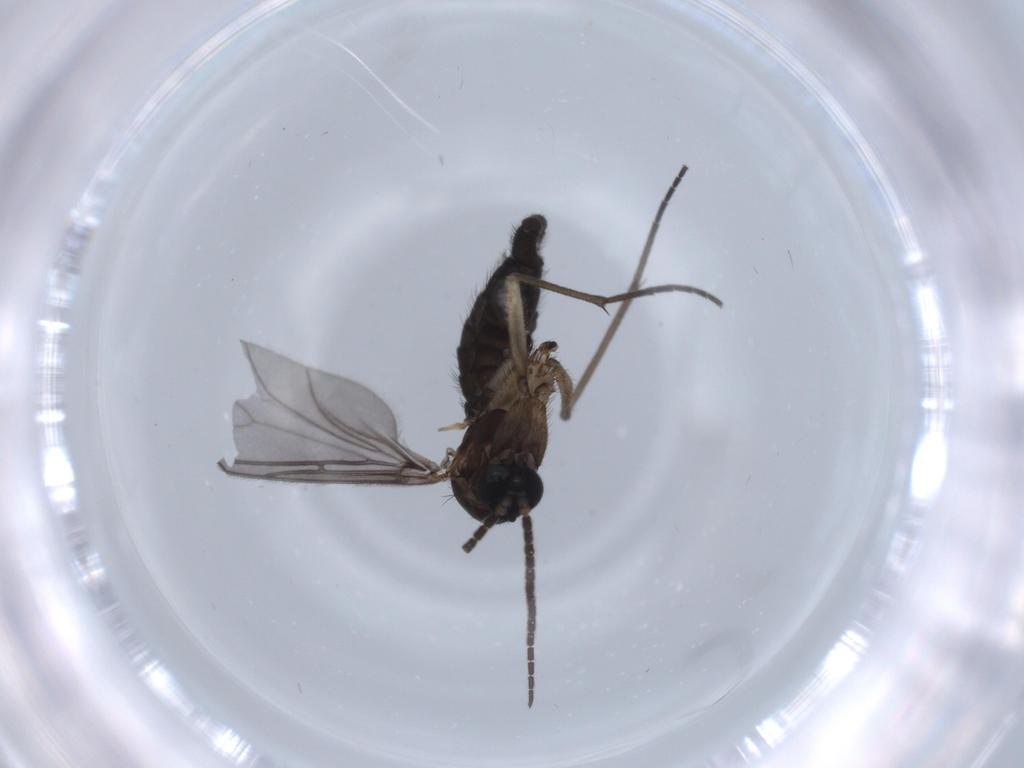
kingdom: Animalia
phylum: Arthropoda
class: Insecta
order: Diptera
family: Sciaridae
